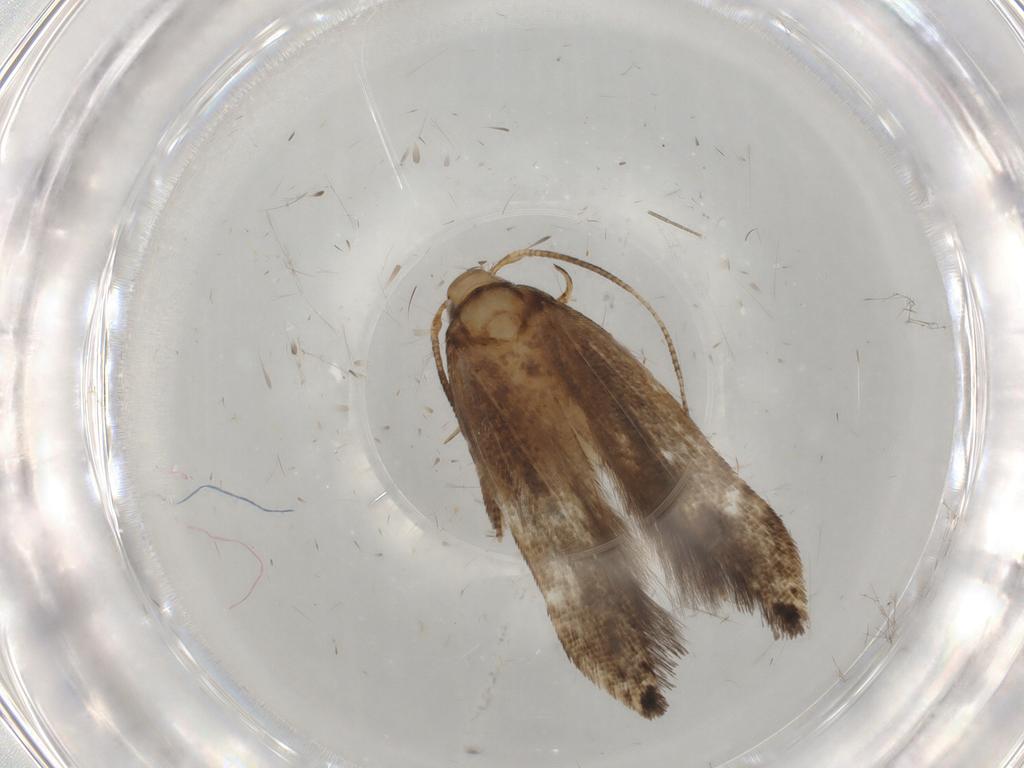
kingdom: Animalia
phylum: Arthropoda
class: Insecta
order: Lepidoptera
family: Cosmopterigidae
